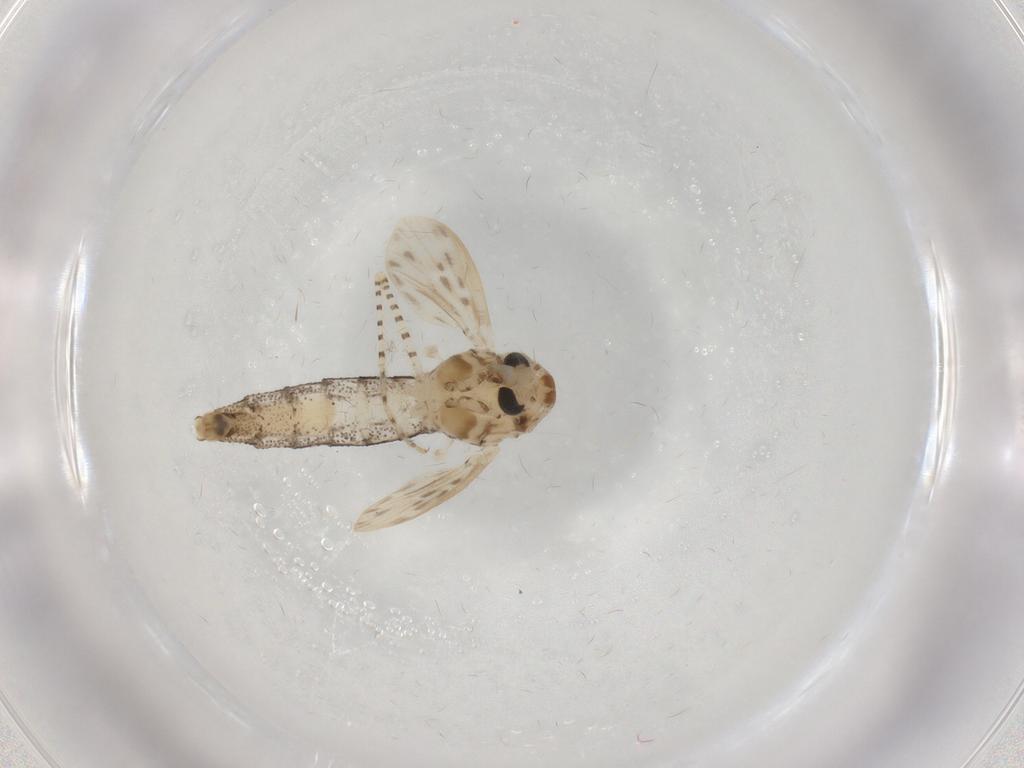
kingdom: Animalia
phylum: Arthropoda
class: Insecta
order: Diptera
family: Chaoboridae
